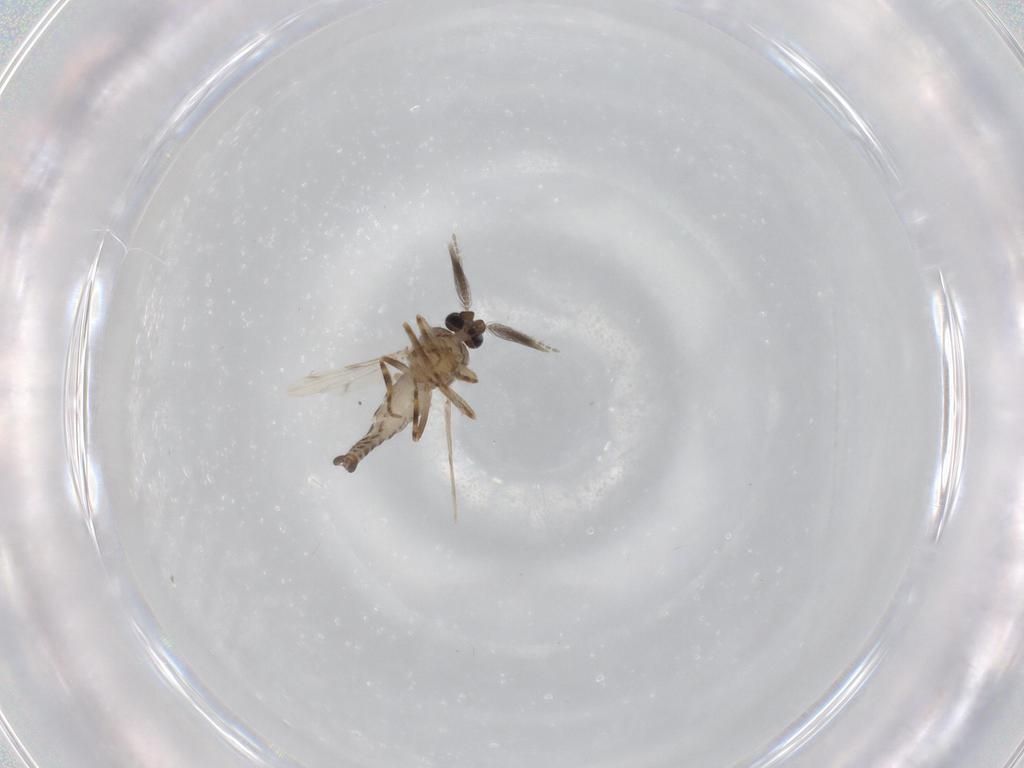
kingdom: Animalia
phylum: Arthropoda
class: Insecta
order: Diptera
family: Ceratopogonidae
